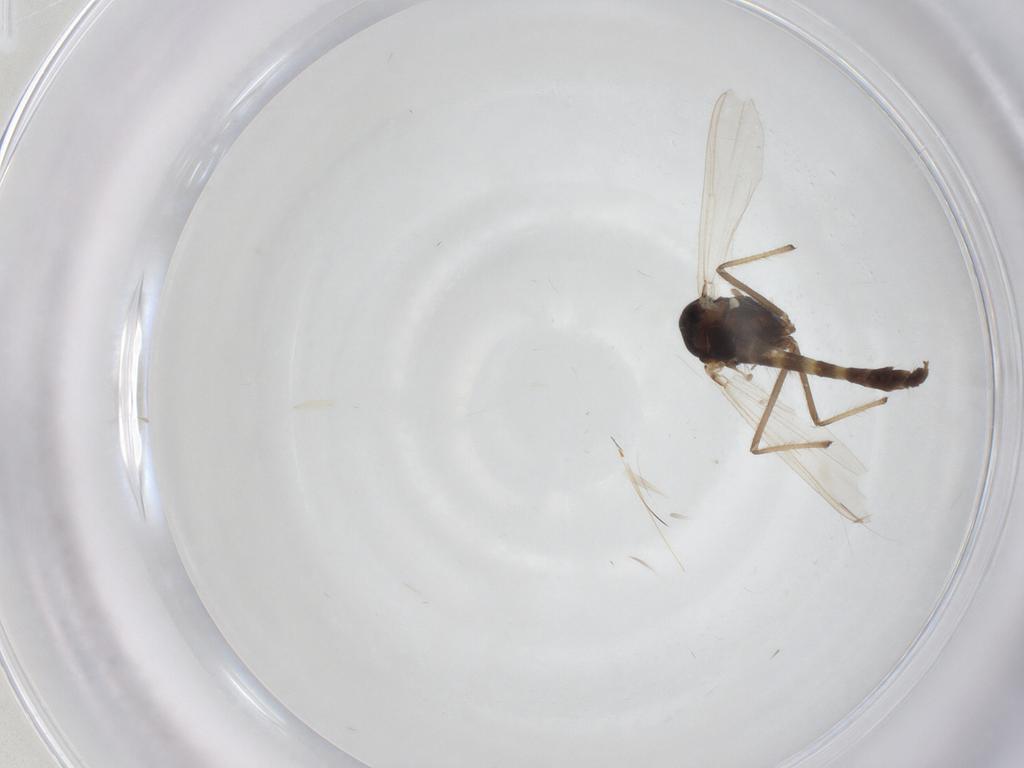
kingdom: Animalia
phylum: Arthropoda
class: Insecta
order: Diptera
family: Chironomidae
